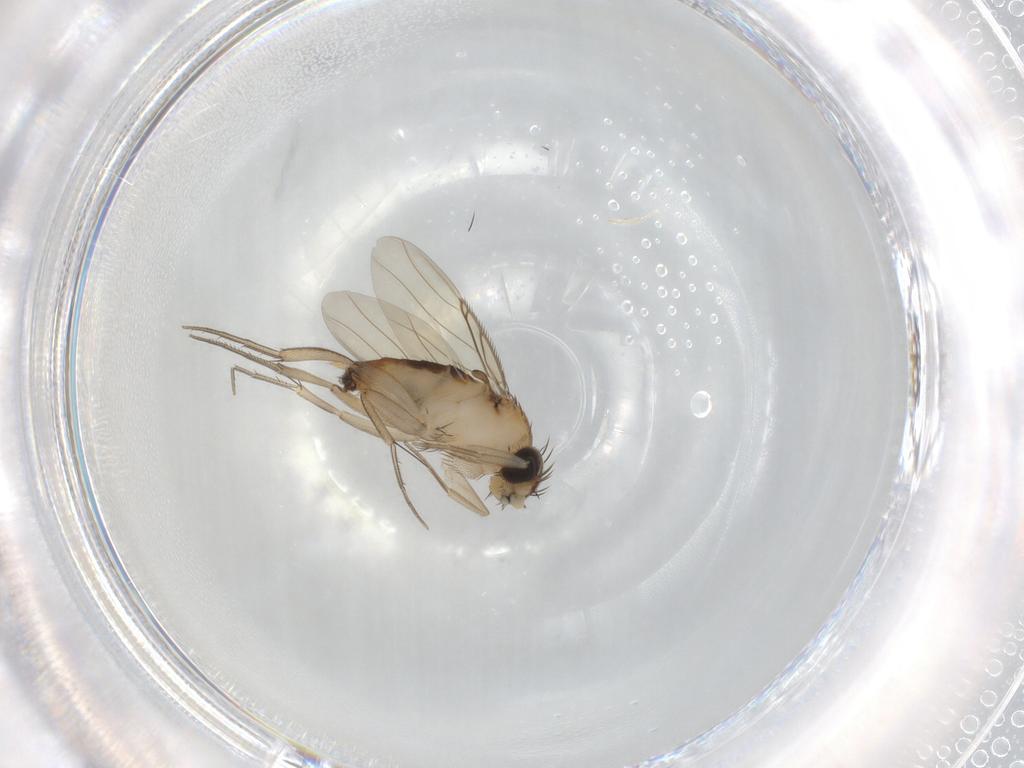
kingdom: Animalia
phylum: Arthropoda
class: Insecta
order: Diptera
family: Phoridae
